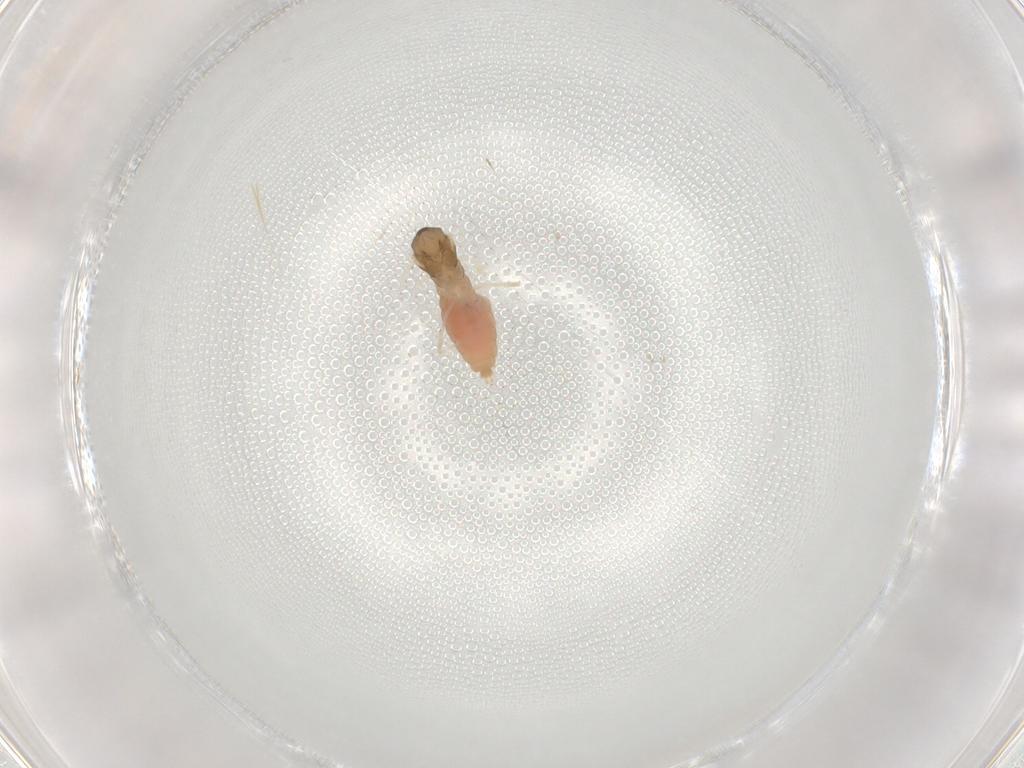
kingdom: Animalia
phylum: Arthropoda
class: Insecta
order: Diptera
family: Cecidomyiidae
